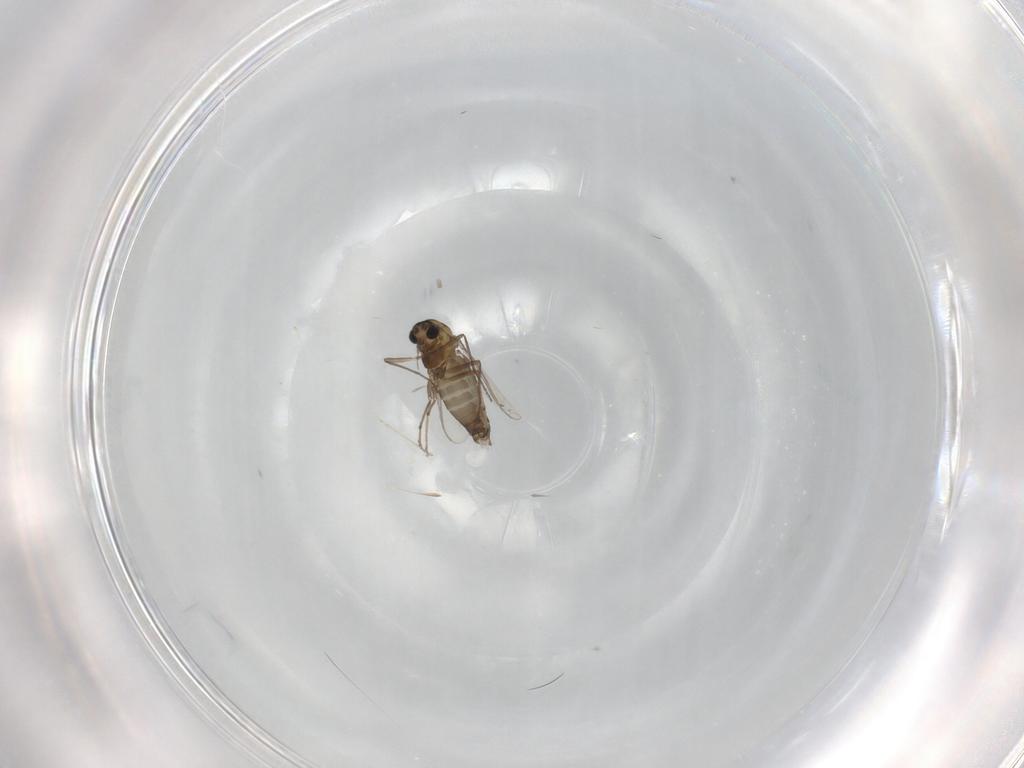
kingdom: Animalia
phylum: Arthropoda
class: Insecta
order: Diptera
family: Chironomidae
